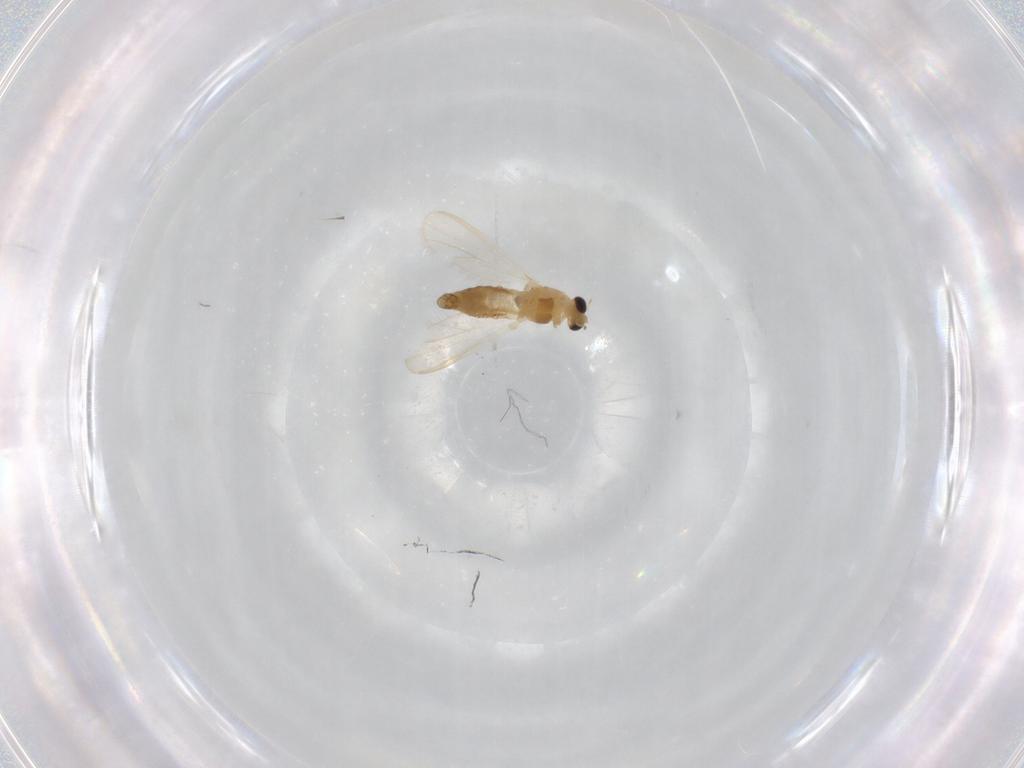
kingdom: Animalia
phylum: Arthropoda
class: Insecta
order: Diptera
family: Chironomidae
